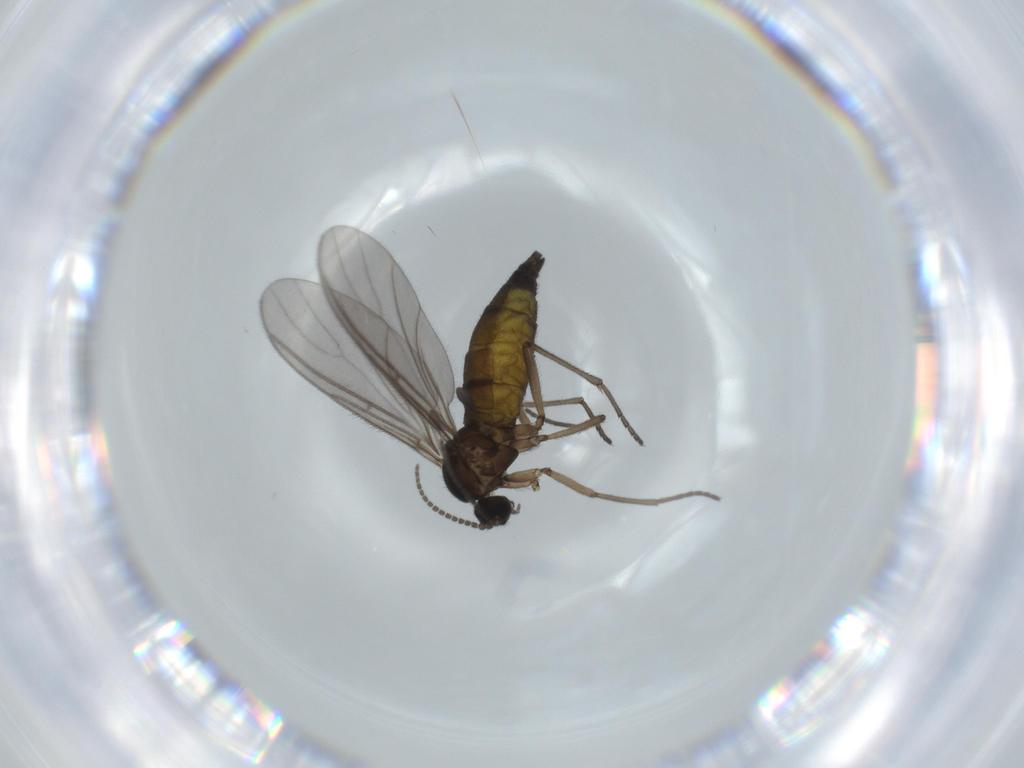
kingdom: Animalia
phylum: Arthropoda
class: Insecta
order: Diptera
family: Sciaridae
